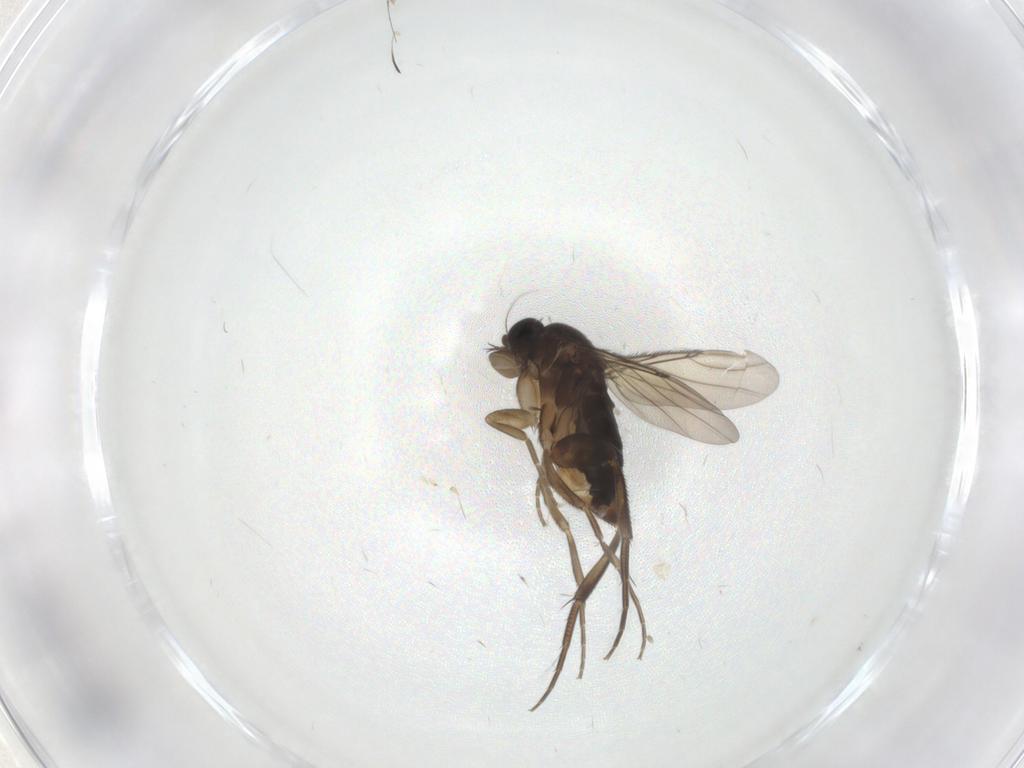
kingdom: Animalia
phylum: Arthropoda
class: Insecta
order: Diptera
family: Phoridae
